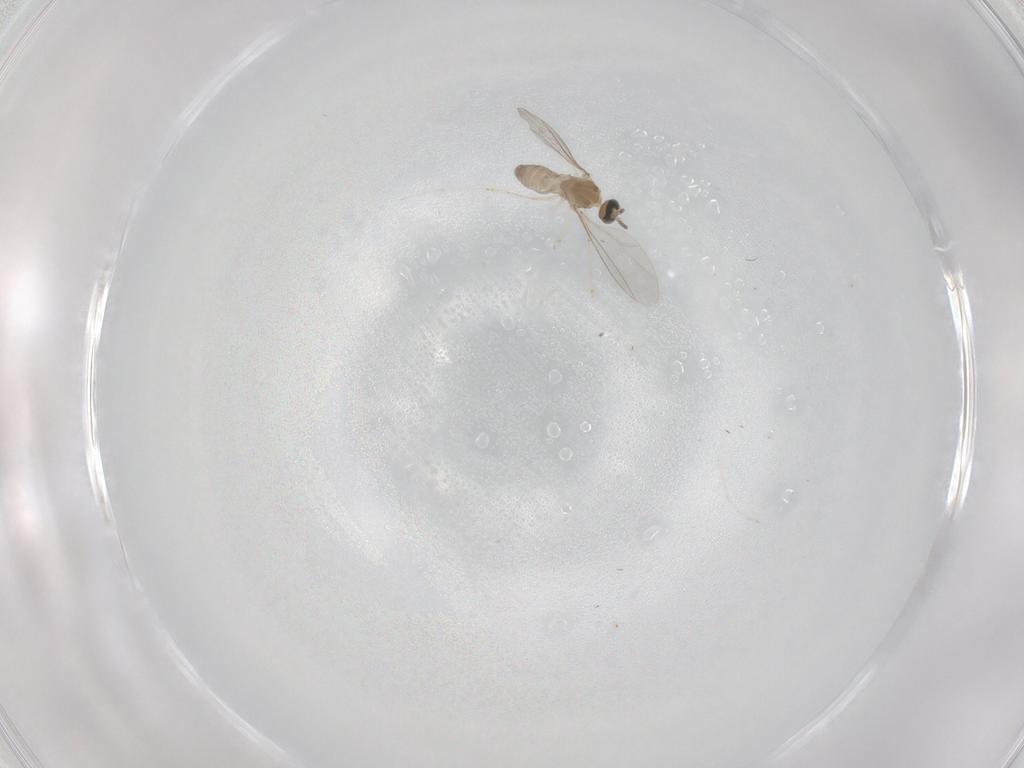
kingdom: Animalia
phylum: Arthropoda
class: Insecta
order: Diptera
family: Cecidomyiidae
